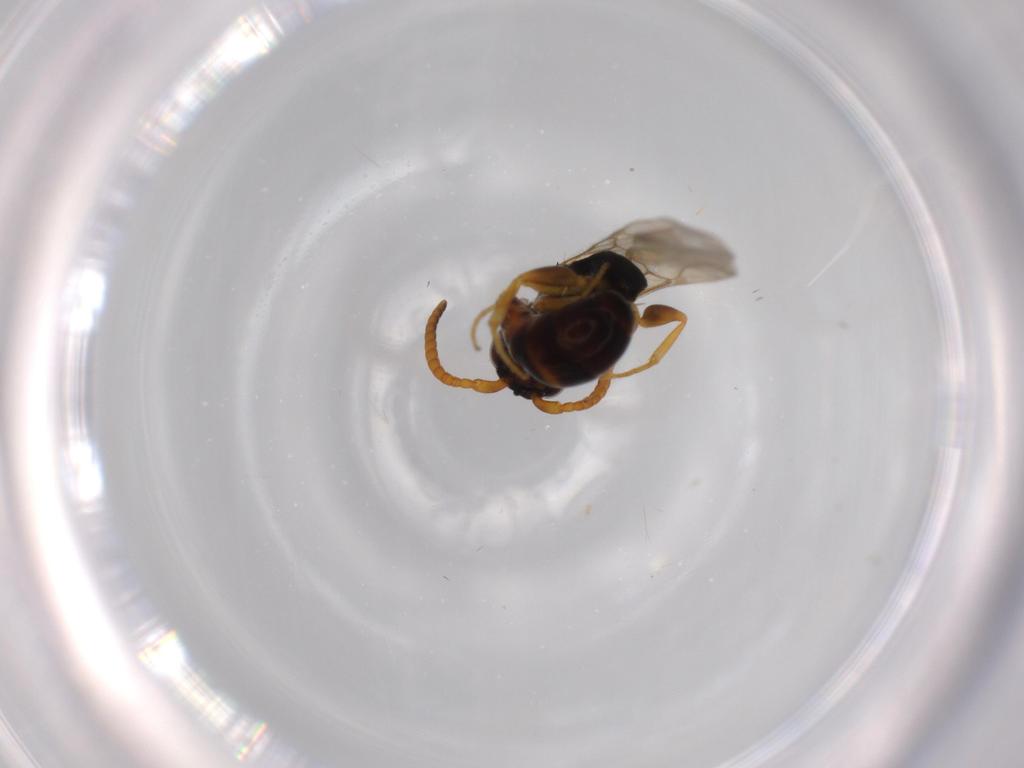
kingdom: Animalia
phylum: Arthropoda
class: Insecta
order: Hymenoptera
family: Bethylidae
